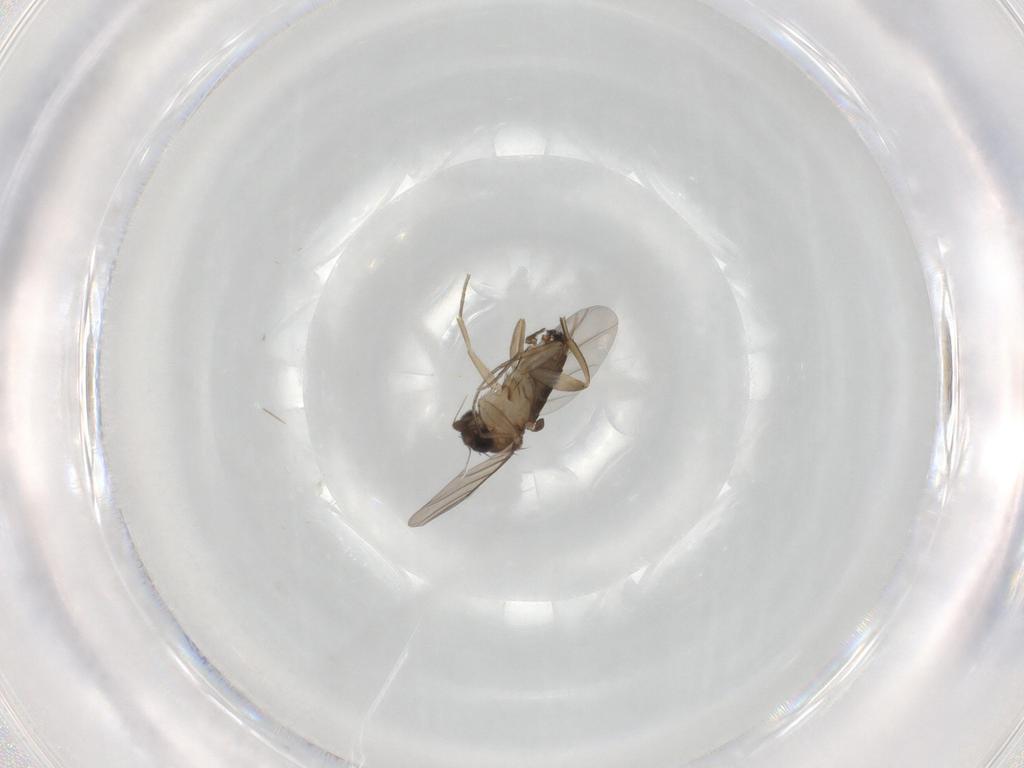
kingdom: Animalia
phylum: Arthropoda
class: Insecta
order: Diptera
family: Phoridae
